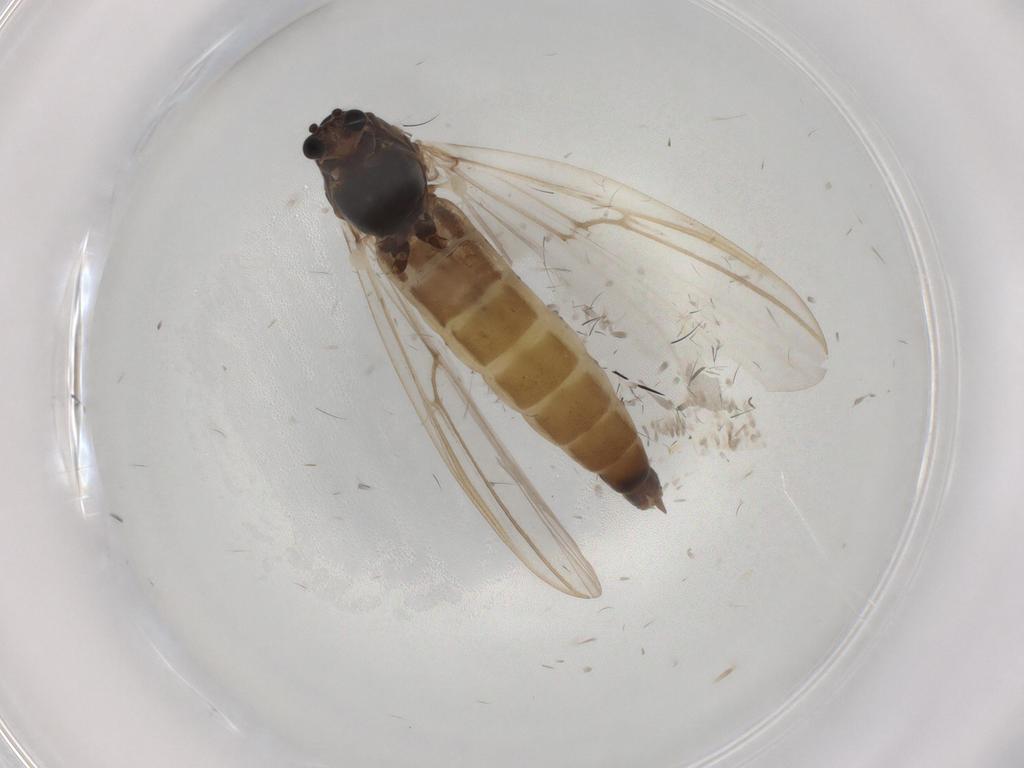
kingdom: Animalia
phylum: Arthropoda
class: Insecta
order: Diptera
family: Chironomidae
